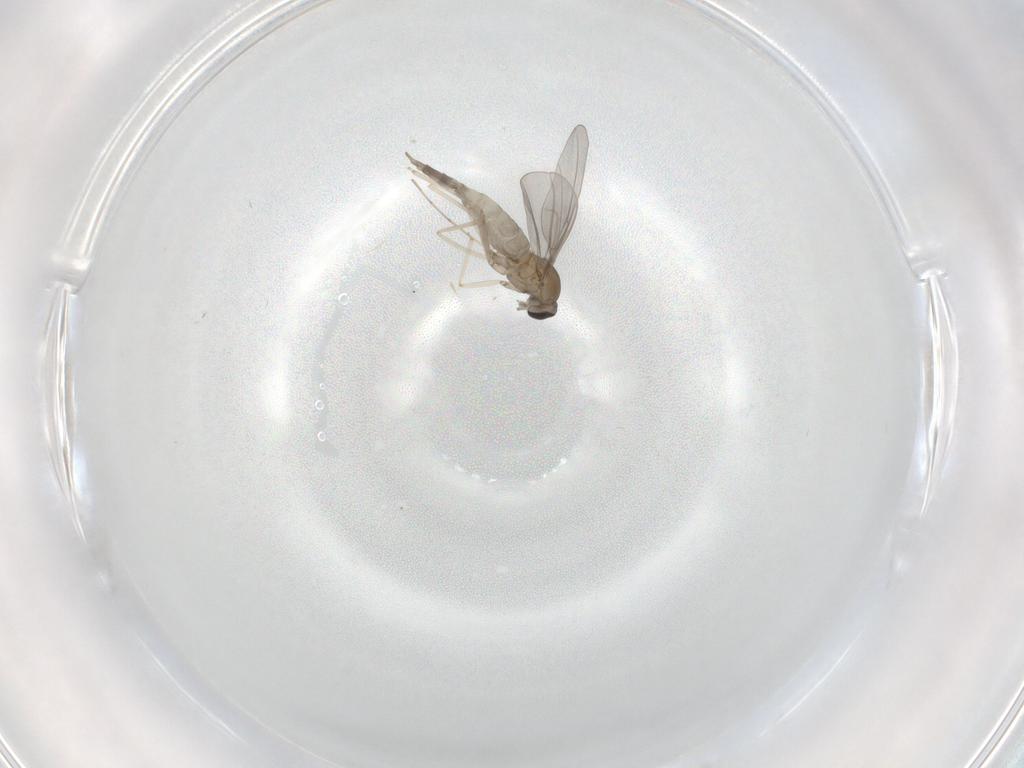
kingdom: Animalia
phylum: Arthropoda
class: Insecta
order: Diptera
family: Cecidomyiidae
